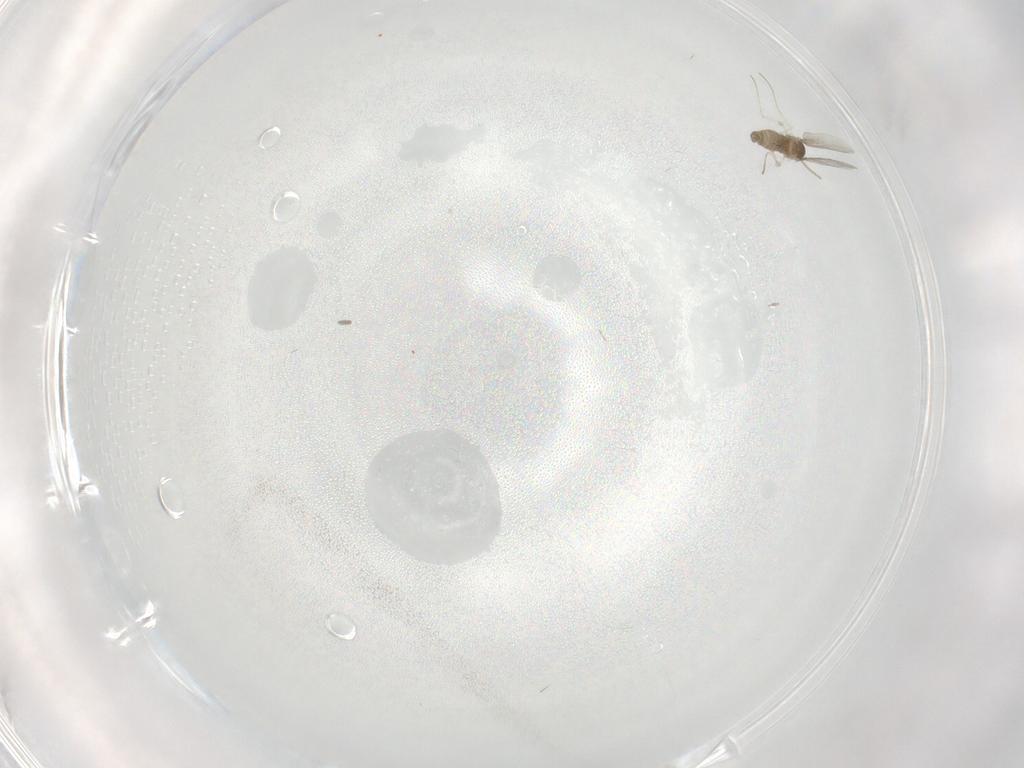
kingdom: Animalia
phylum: Arthropoda
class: Insecta
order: Diptera
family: Cecidomyiidae
